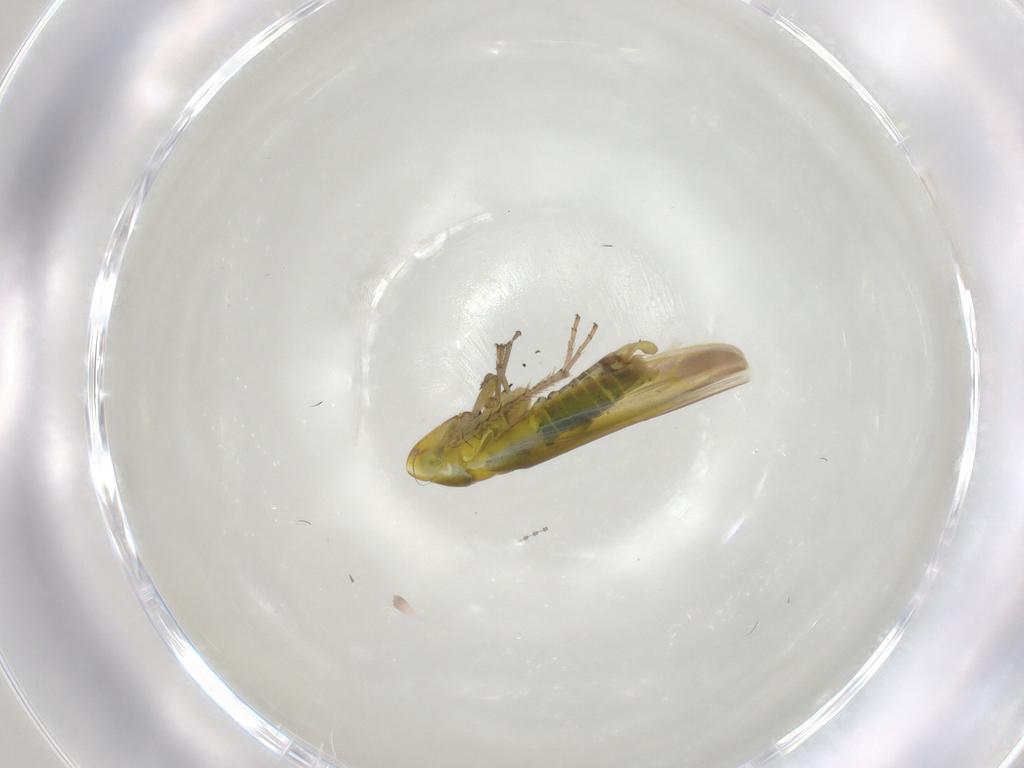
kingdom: Animalia
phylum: Arthropoda
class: Insecta
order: Hemiptera
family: Cicadellidae
